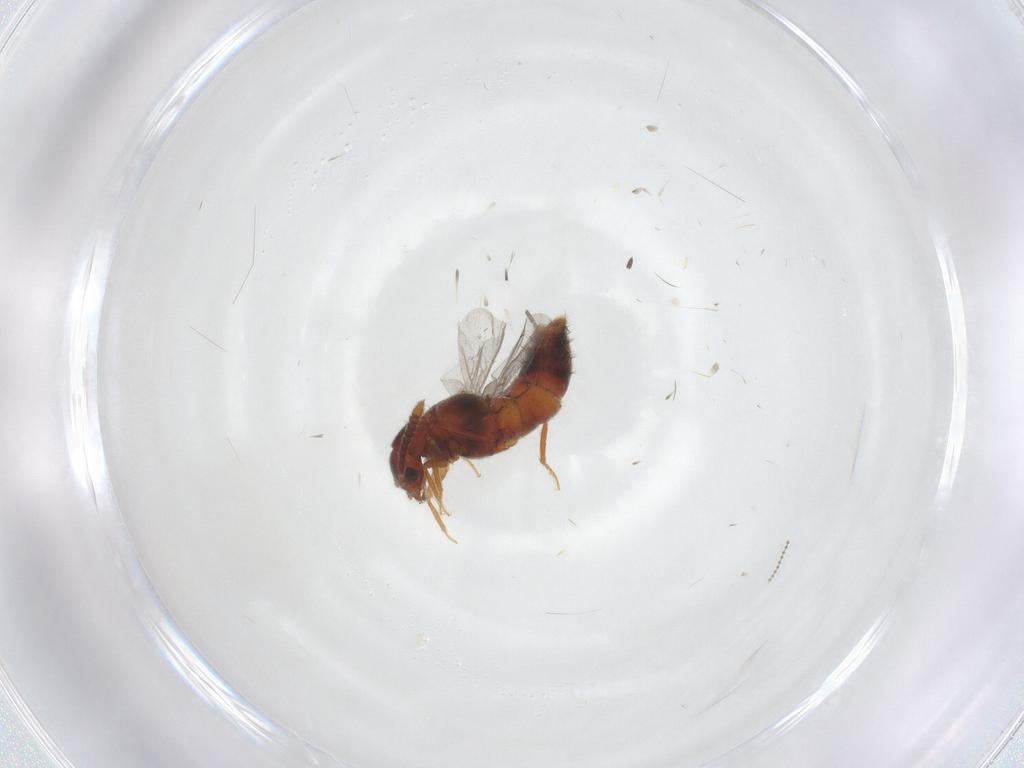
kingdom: Animalia
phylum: Arthropoda
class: Insecta
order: Coleoptera
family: Staphylinidae
